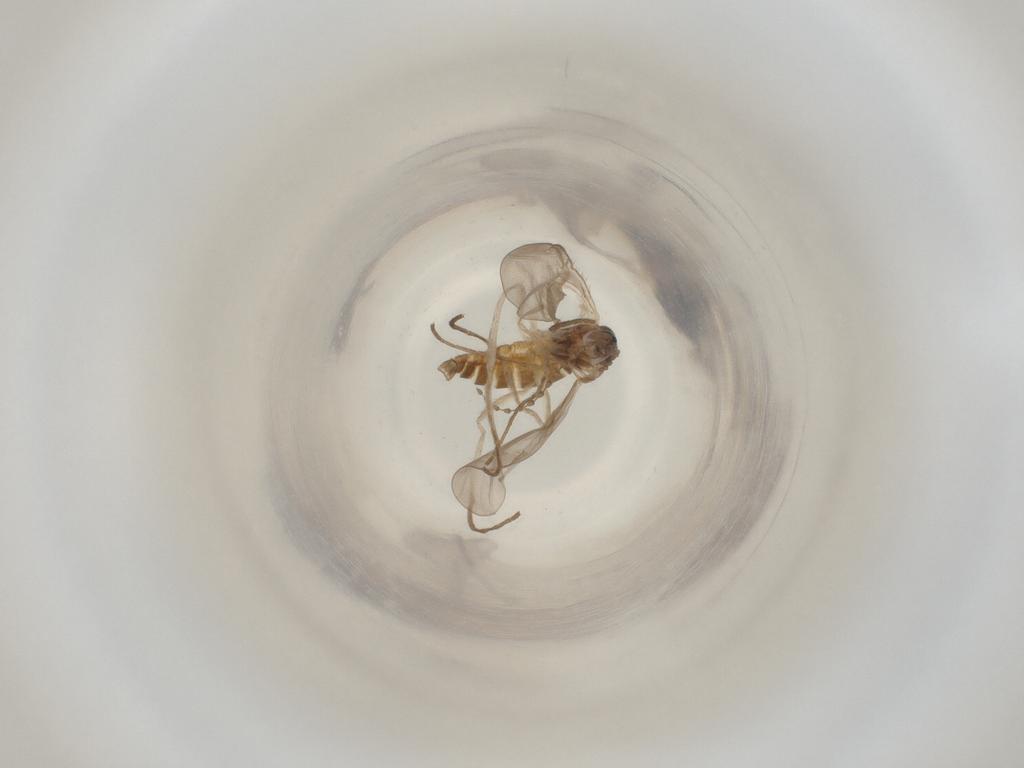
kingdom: Animalia
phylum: Arthropoda
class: Insecta
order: Diptera
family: Cecidomyiidae
